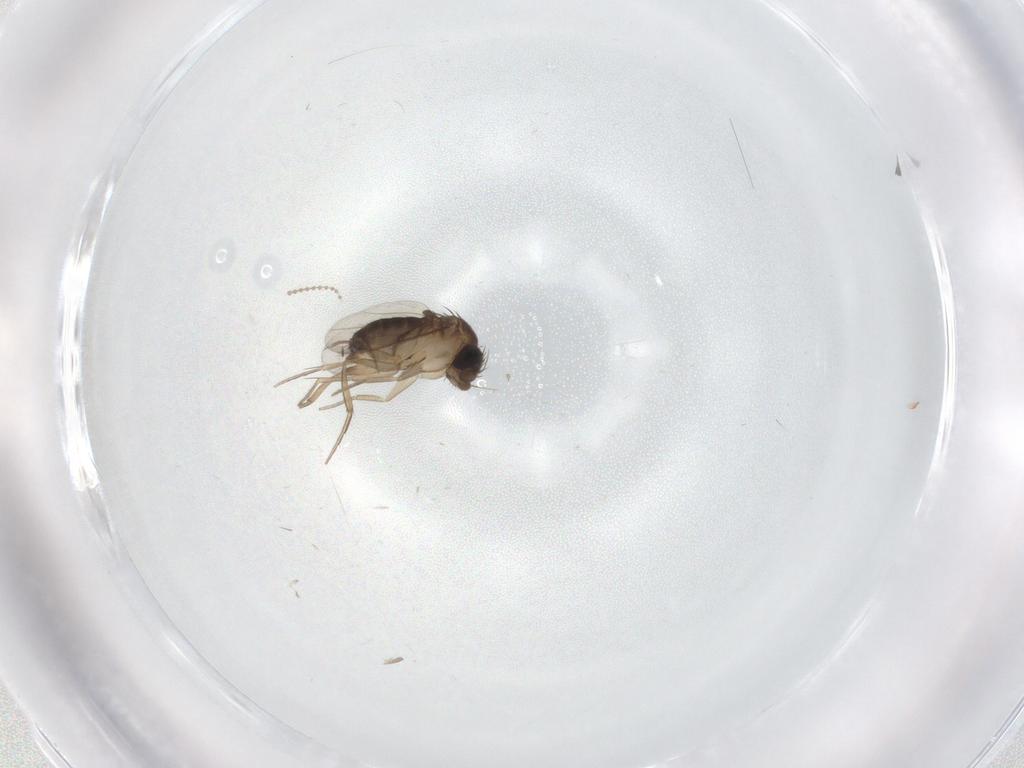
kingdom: Animalia
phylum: Arthropoda
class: Insecta
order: Diptera
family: Phoridae
